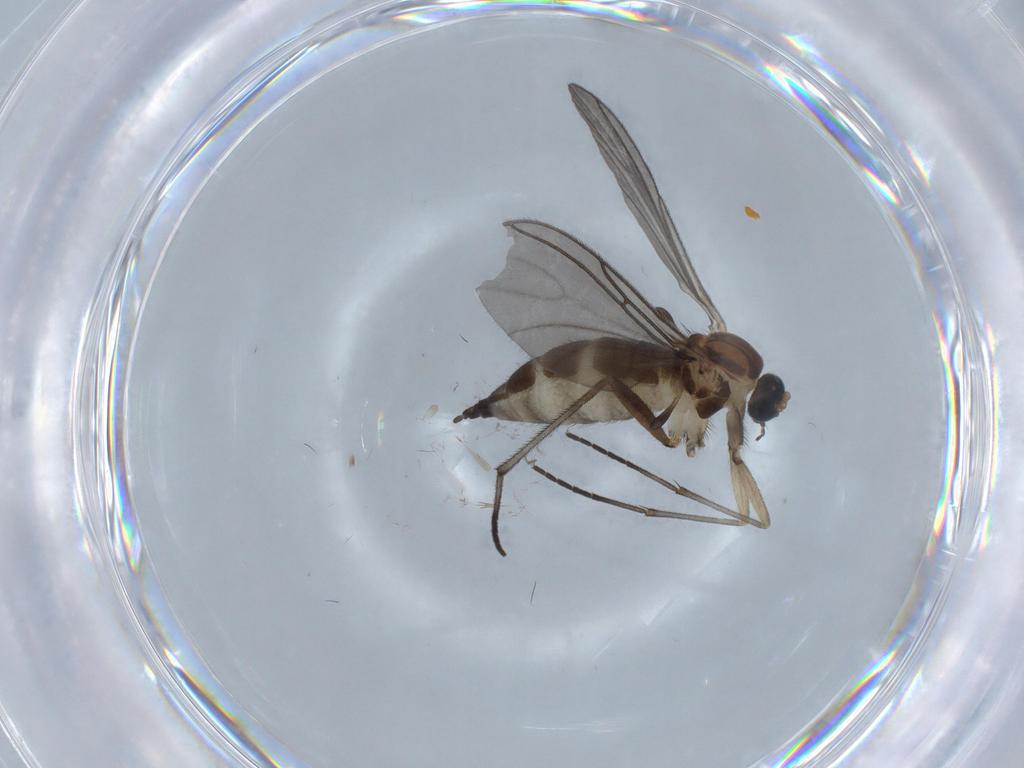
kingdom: Animalia
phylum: Arthropoda
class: Insecta
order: Diptera
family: Sciaridae
